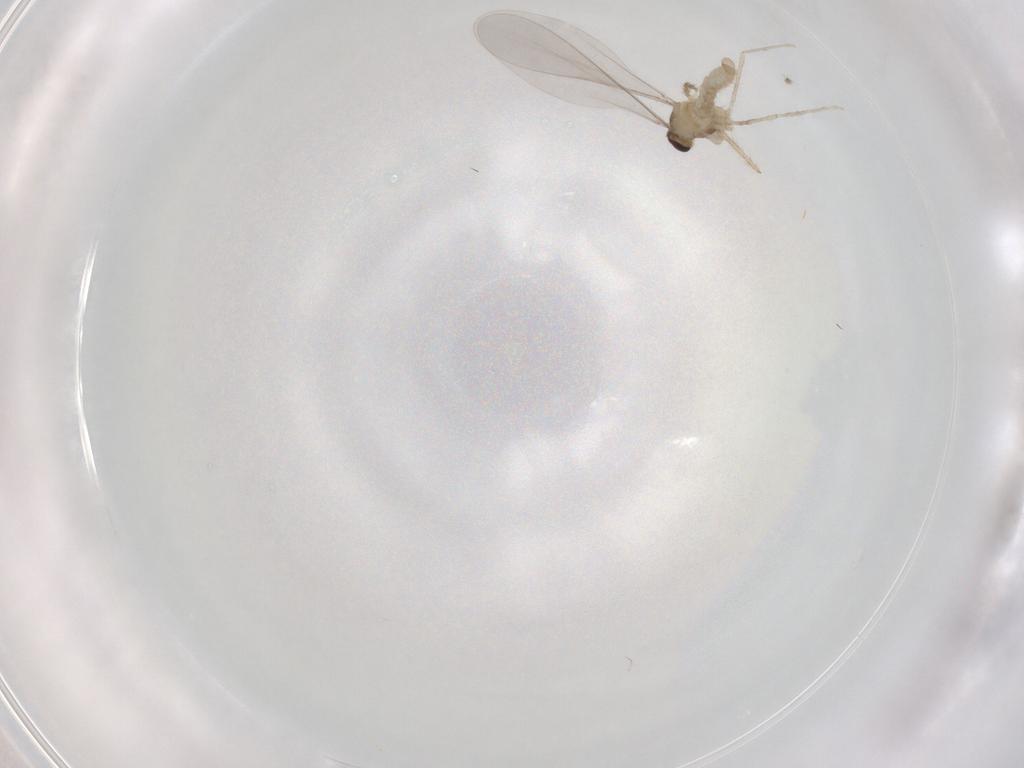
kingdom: Animalia
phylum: Arthropoda
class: Insecta
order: Diptera
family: Cecidomyiidae
